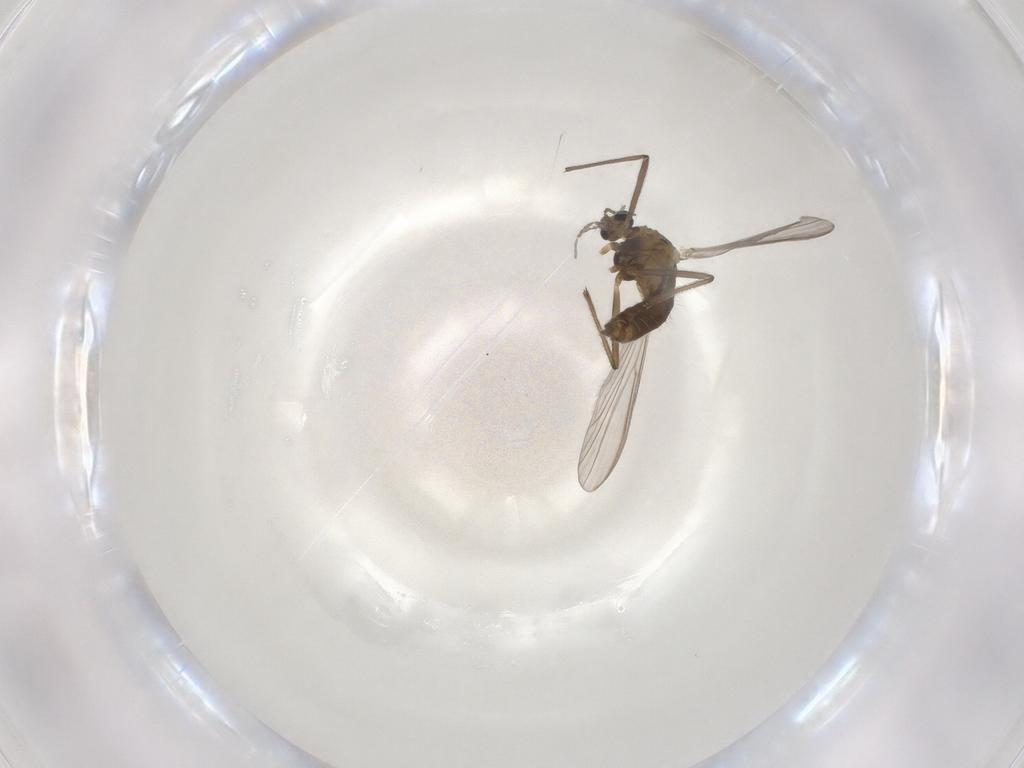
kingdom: Animalia
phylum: Arthropoda
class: Insecta
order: Diptera
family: Chironomidae
